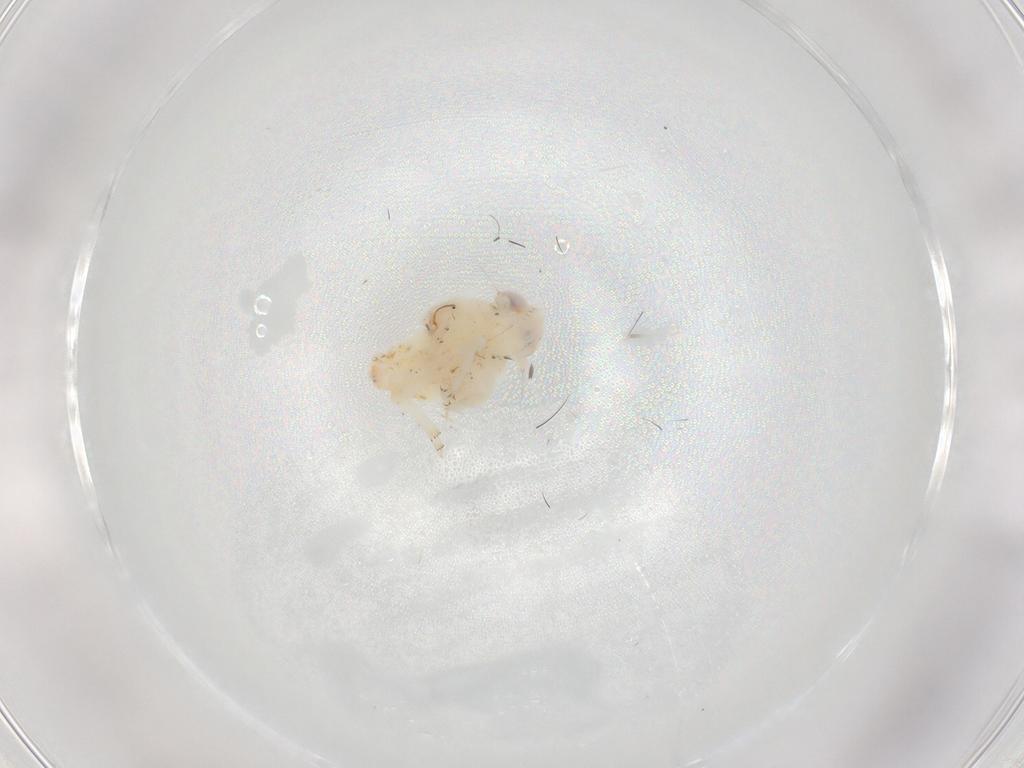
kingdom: Animalia
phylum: Arthropoda
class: Insecta
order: Hemiptera
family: Nogodinidae
